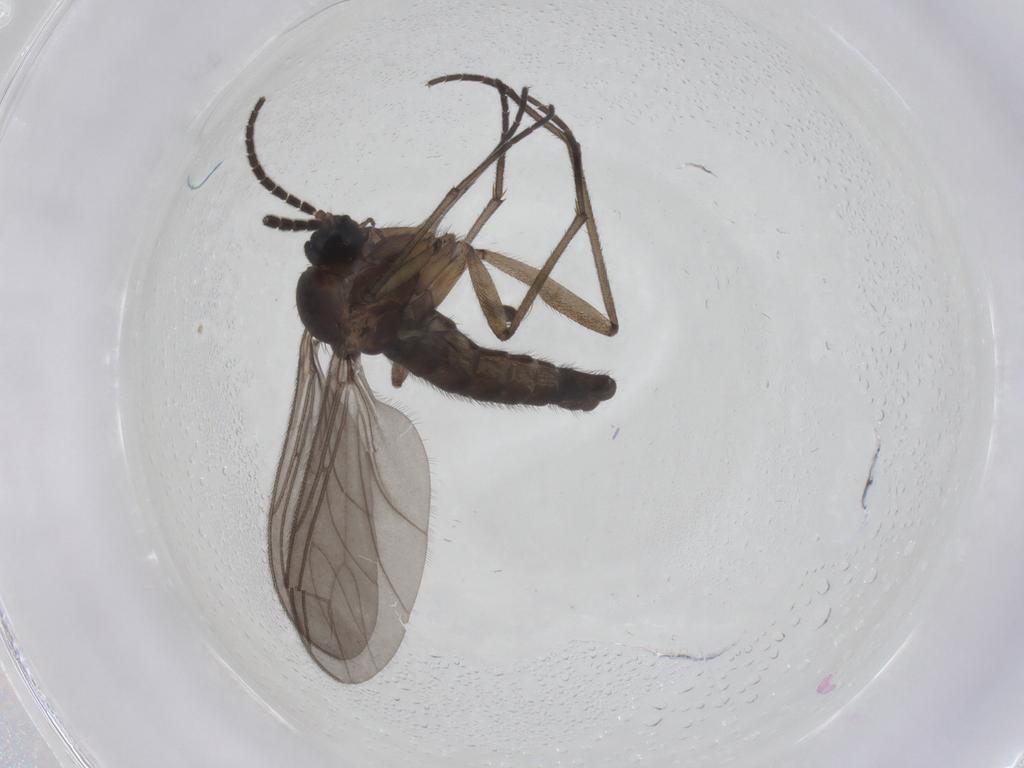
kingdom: Animalia
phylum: Arthropoda
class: Insecta
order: Diptera
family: Sciaridae
